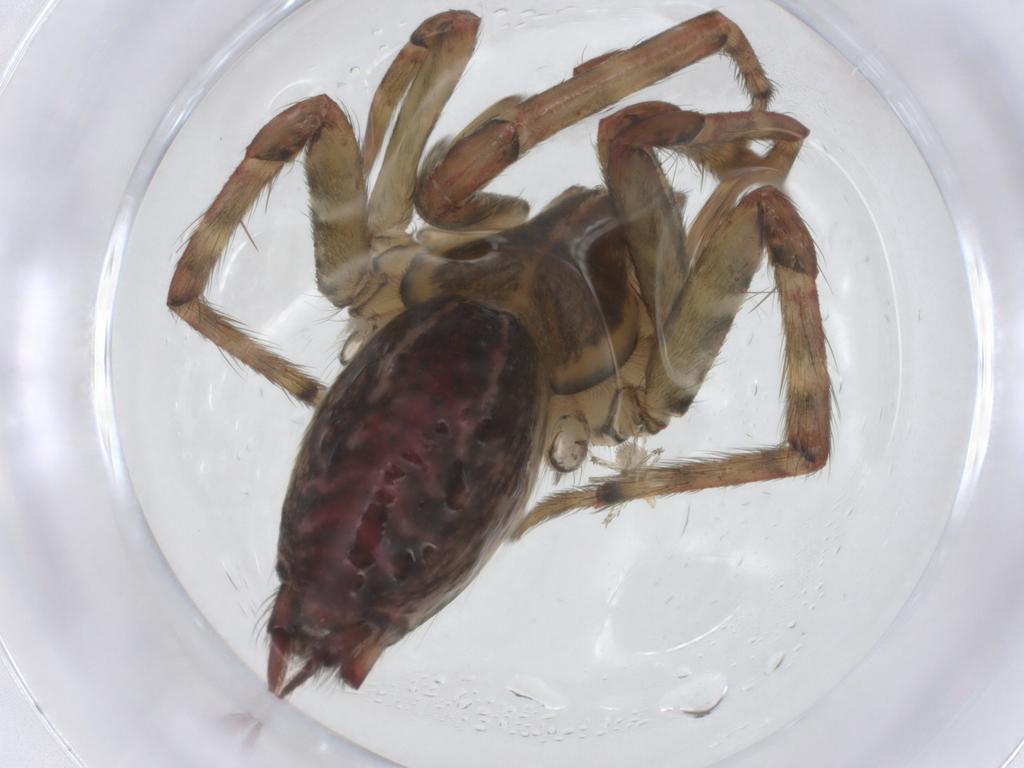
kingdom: Animalia
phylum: Arthropoda
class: Arachnida
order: Araneae
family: Agelenidae
